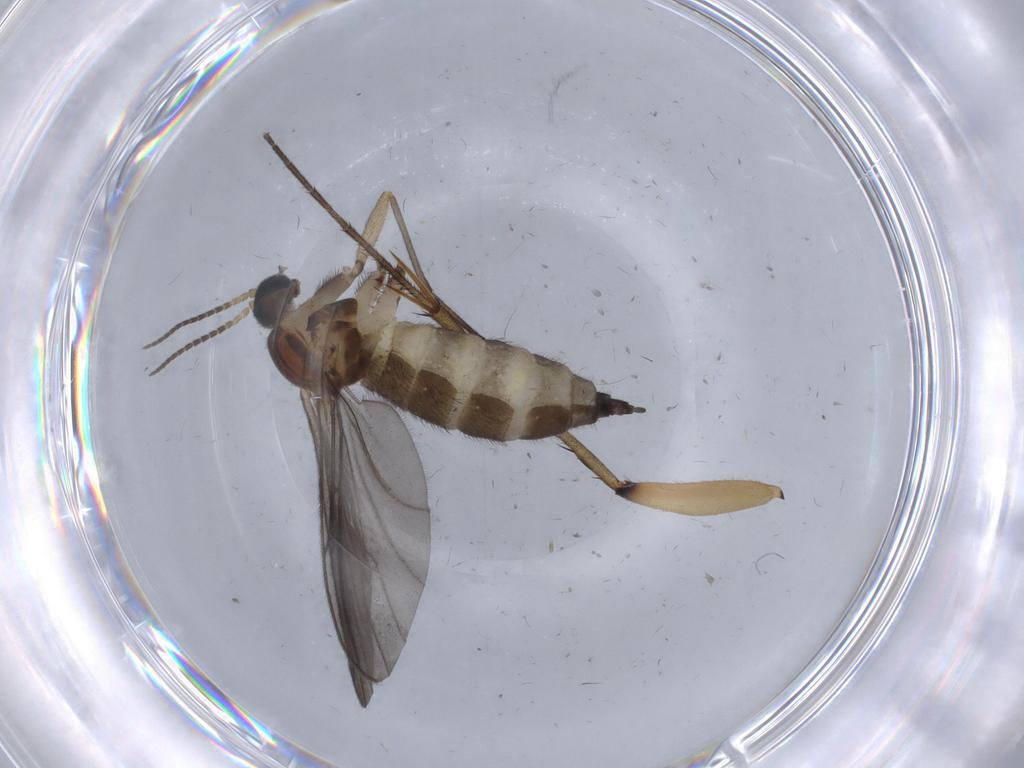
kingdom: Animalia
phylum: Arthropoda
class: Insecta
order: Diptera
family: Sciaridae
